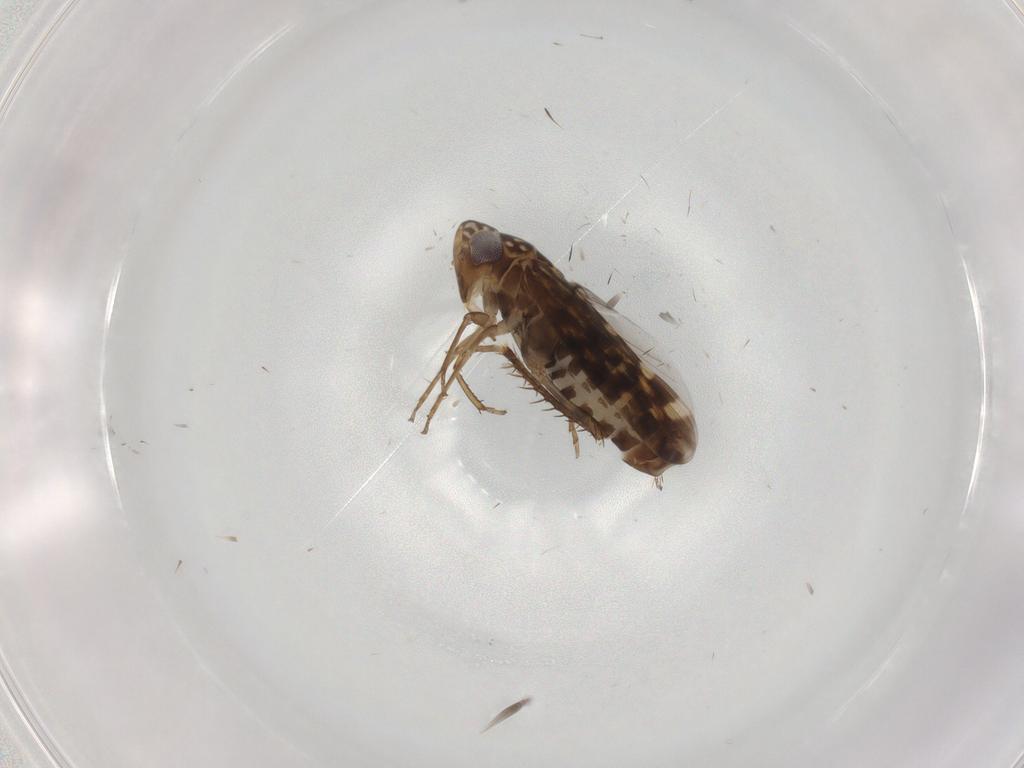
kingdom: Animalia
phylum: Arthropoda
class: Insecta
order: Hemiptera
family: Cicadellidae
